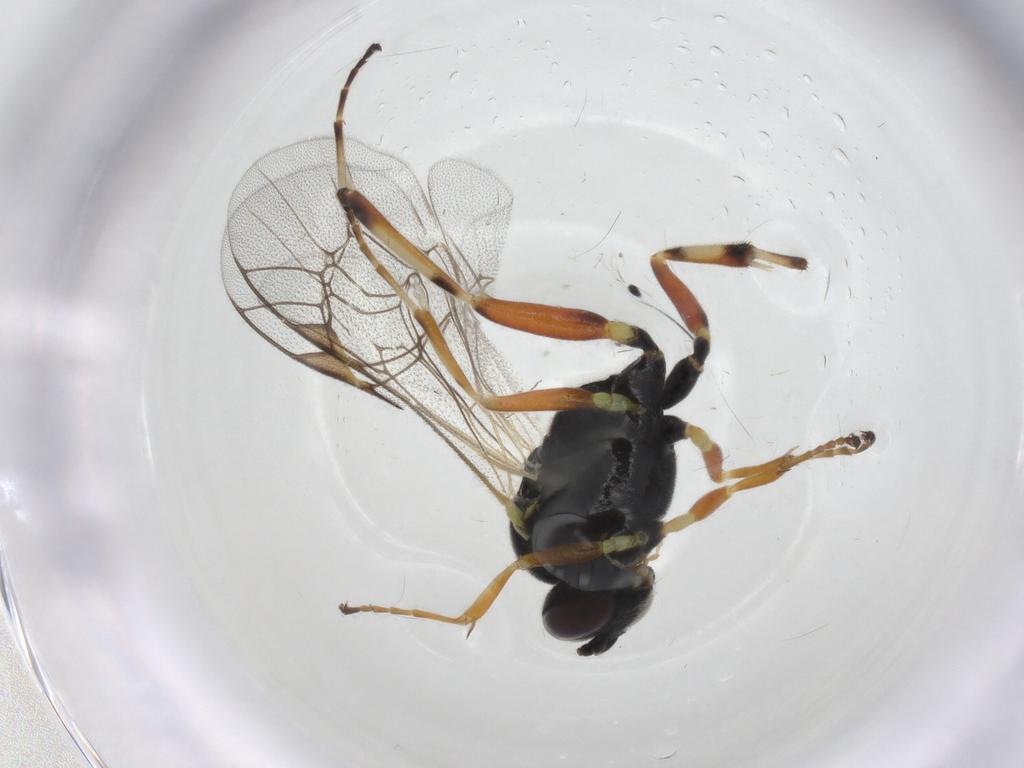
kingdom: Animalia
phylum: Arthropoda
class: Insecta
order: Hymenoptera
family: Ichneumonidae
